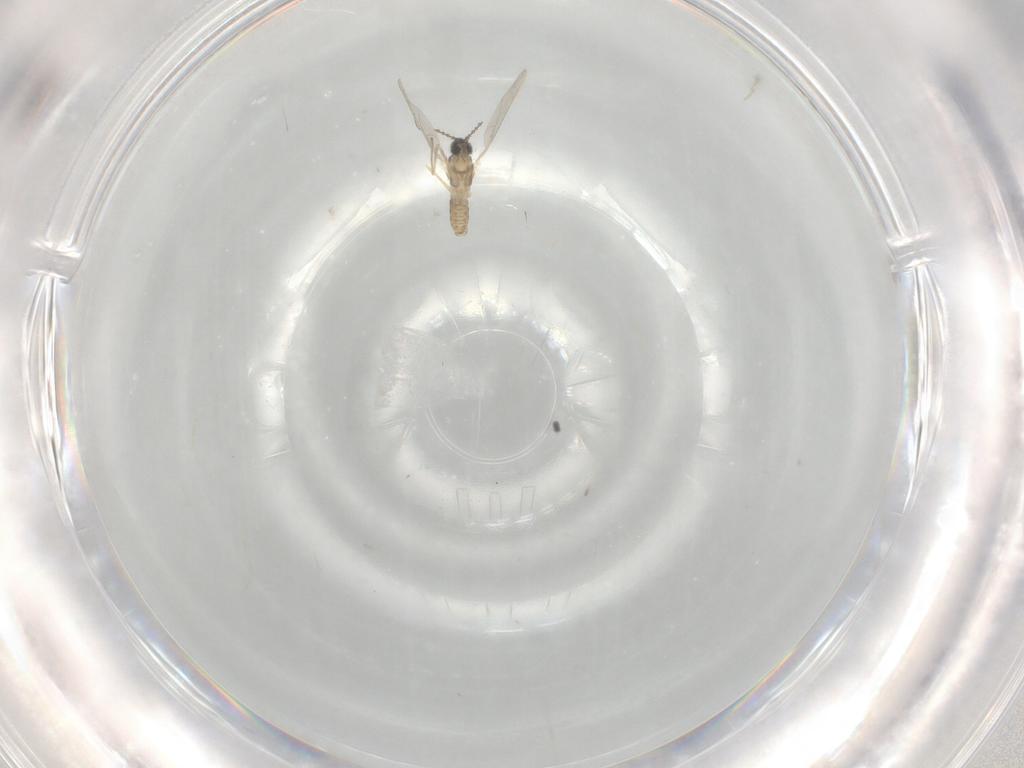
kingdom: Animalia
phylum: Arthropoda
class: Insecta
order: Diptera
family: Cecidomyiidae
